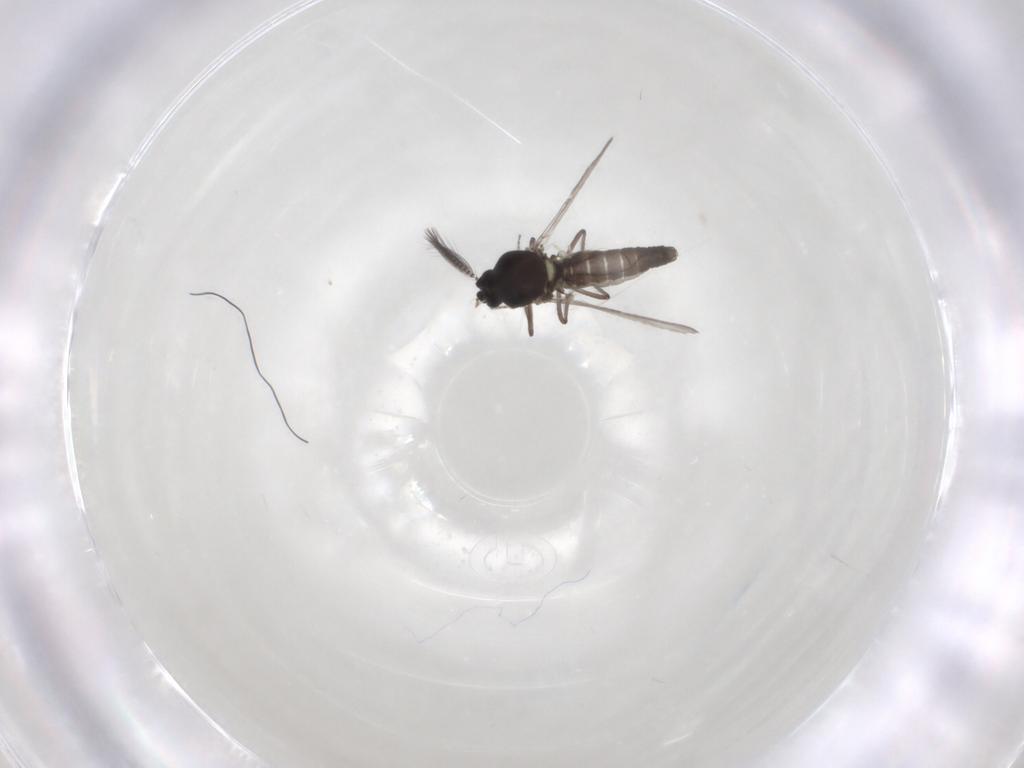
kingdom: Animalia
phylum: Arthropoda
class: Insecta
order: Diptera
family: Ceratopogonidae
